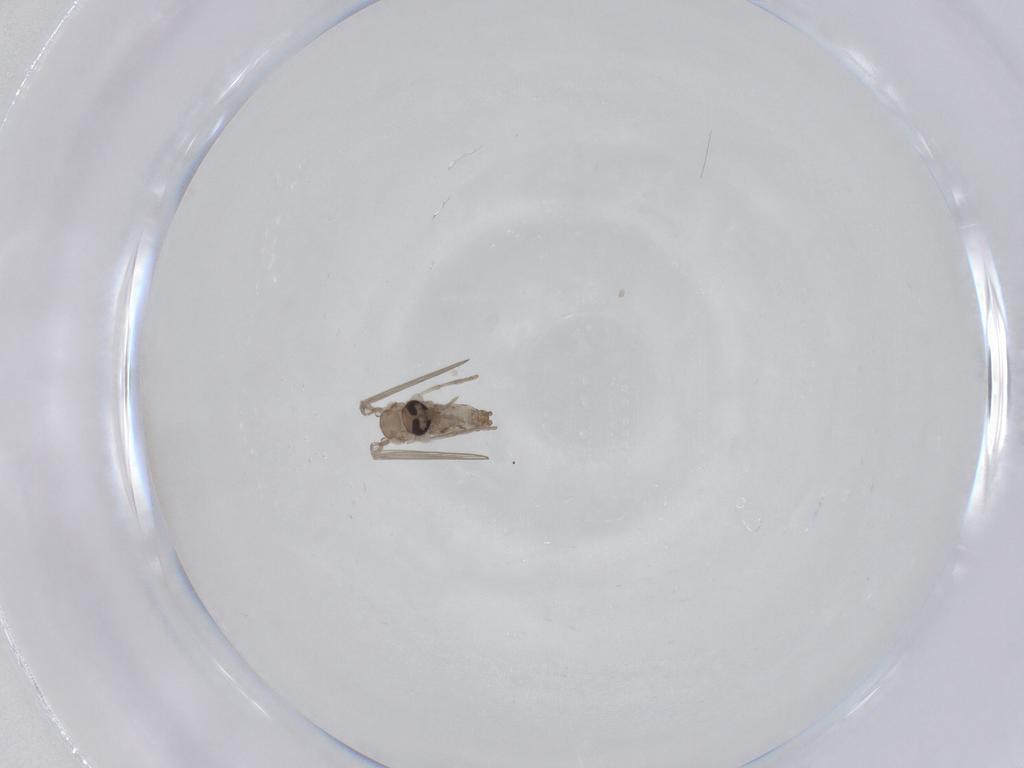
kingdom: Animalia
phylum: Arthropoda
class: Insecta
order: Diptera
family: Psychodidae
